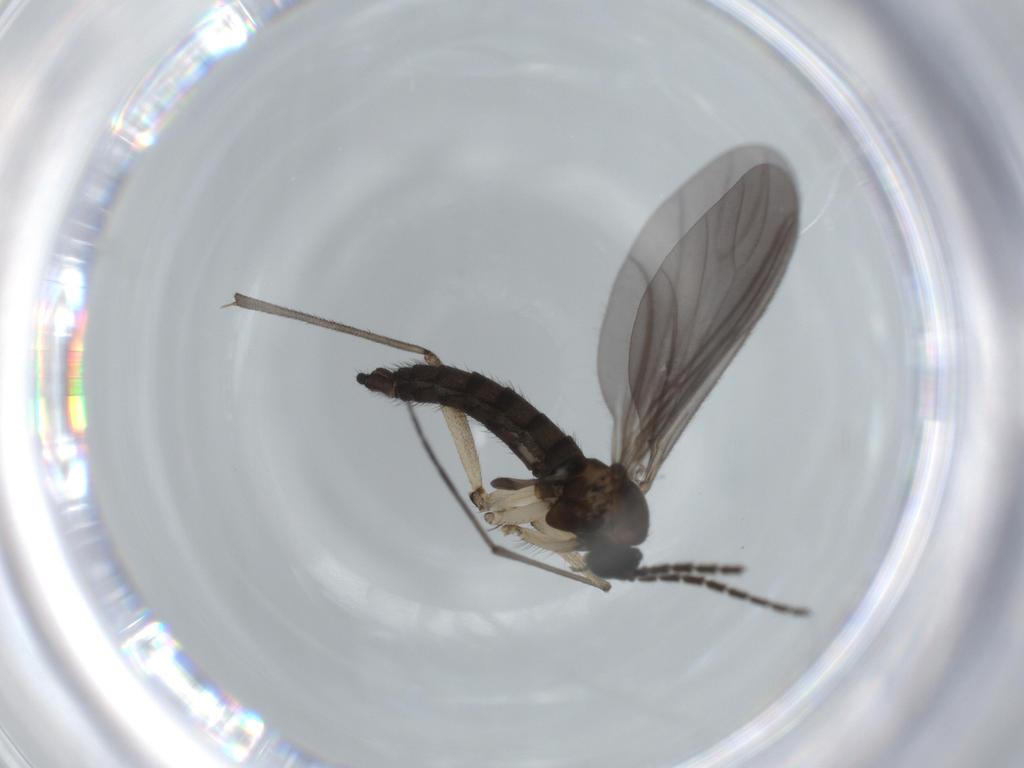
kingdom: Animalia
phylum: Arthropoda
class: Insecta
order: Diptera
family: Sciaridae
